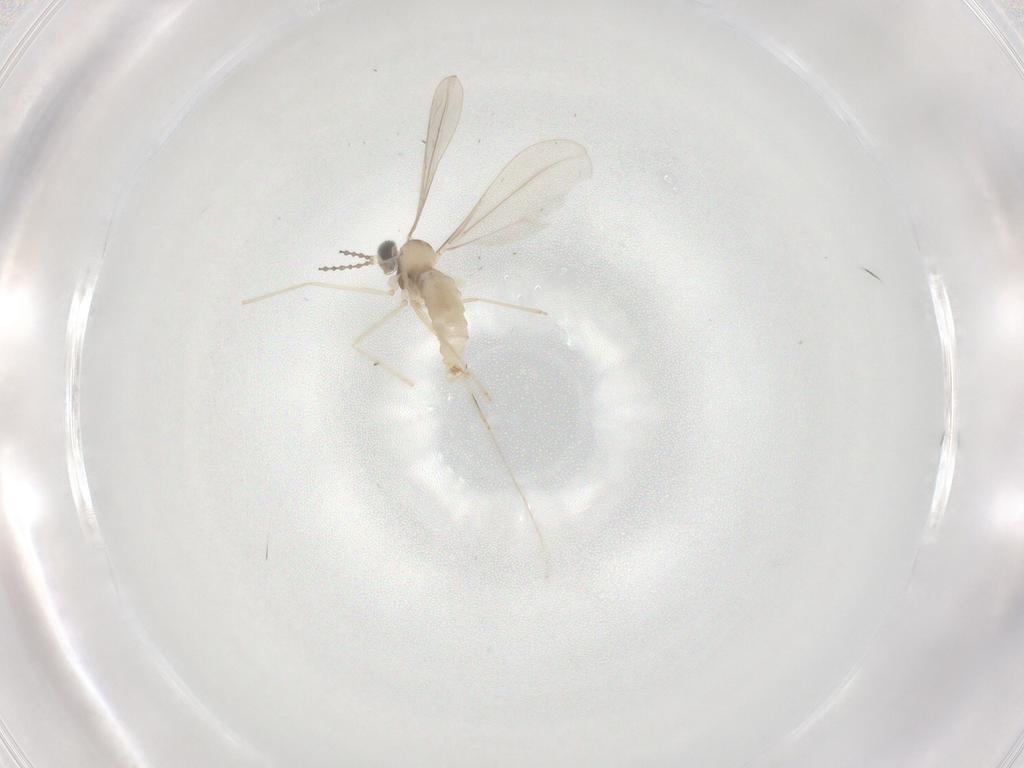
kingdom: Animalia
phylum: Arthropoda
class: Insecta
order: Diptera
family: Cecidomyiidae
